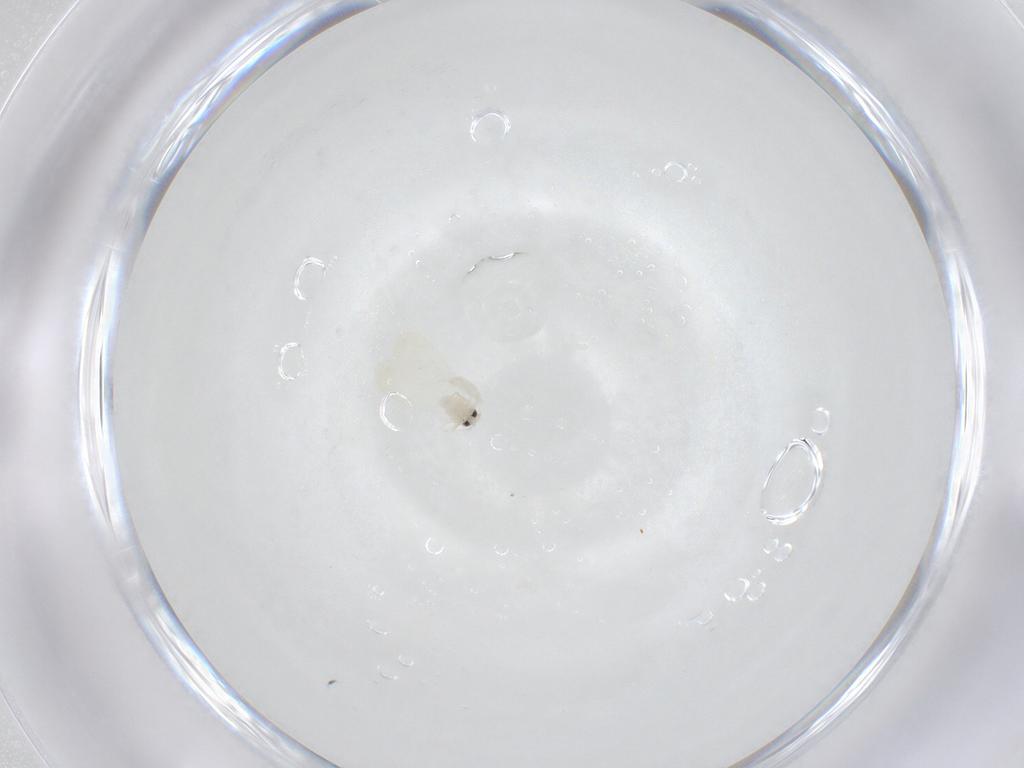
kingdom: Animalia
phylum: Arthropoda
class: Insecta
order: Hemiptera
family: Aleyrodidae
